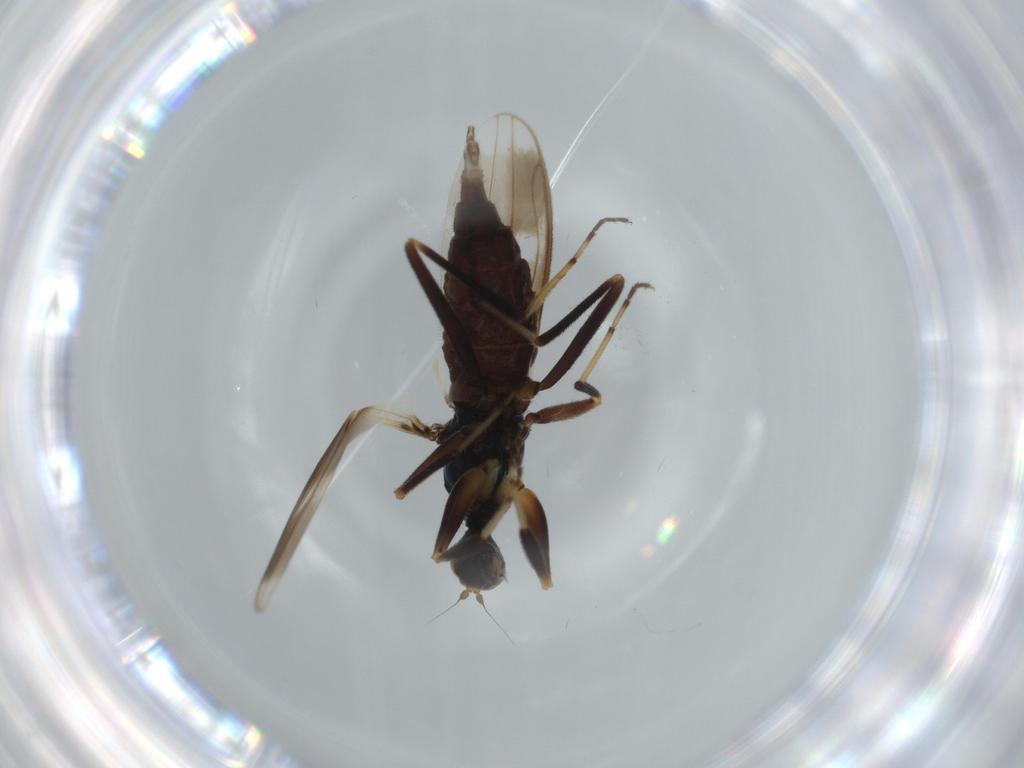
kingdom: Animalia
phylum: Arthropoda
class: Insecta
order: Diptera
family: Hybotidae
